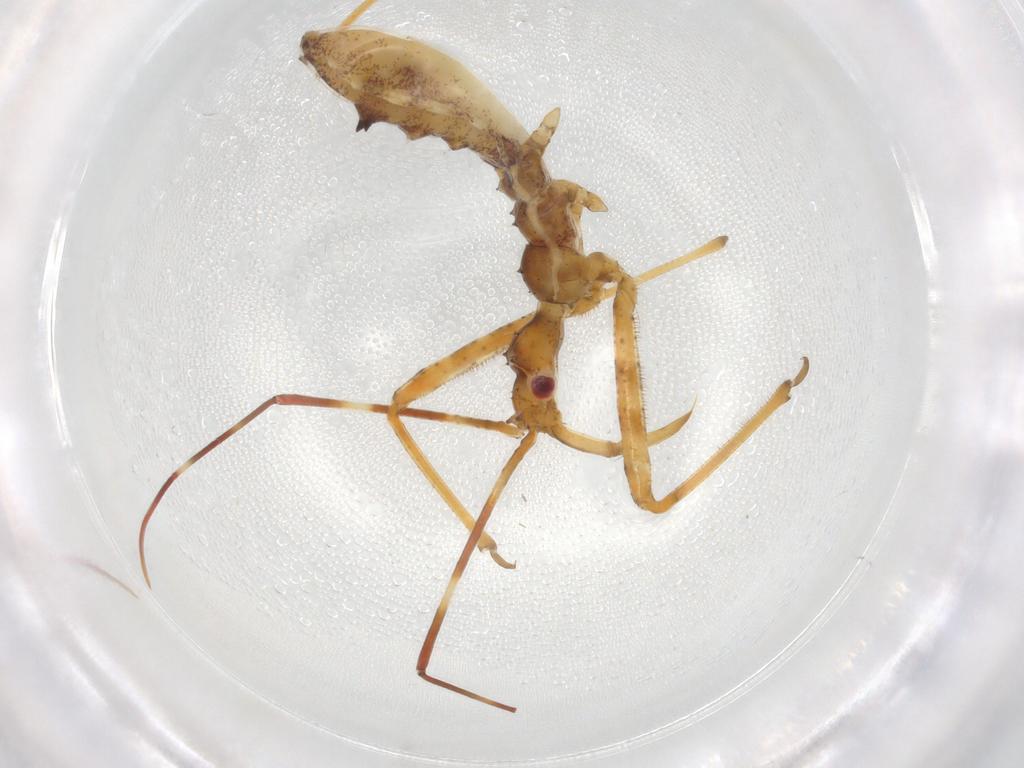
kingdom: Animalia
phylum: Arthropoda
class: Insecta
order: Hemiptera
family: Reduviidae
